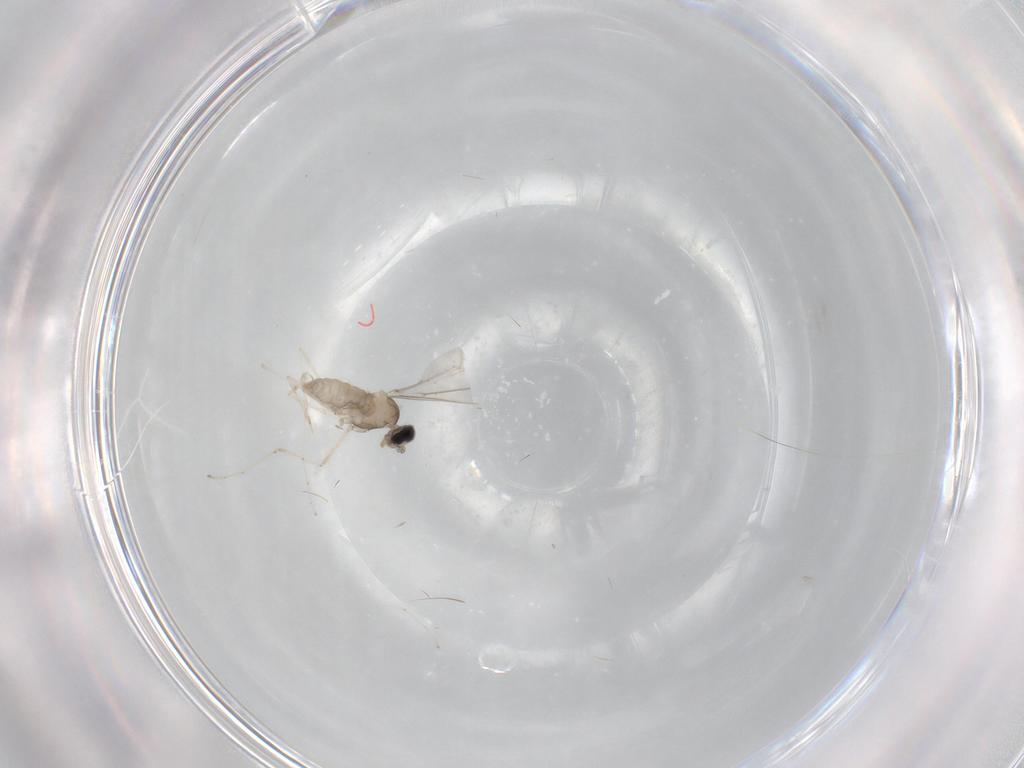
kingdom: Animalia
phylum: Arthropoda
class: Insecta
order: Diptera
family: Cecidomyiidae
